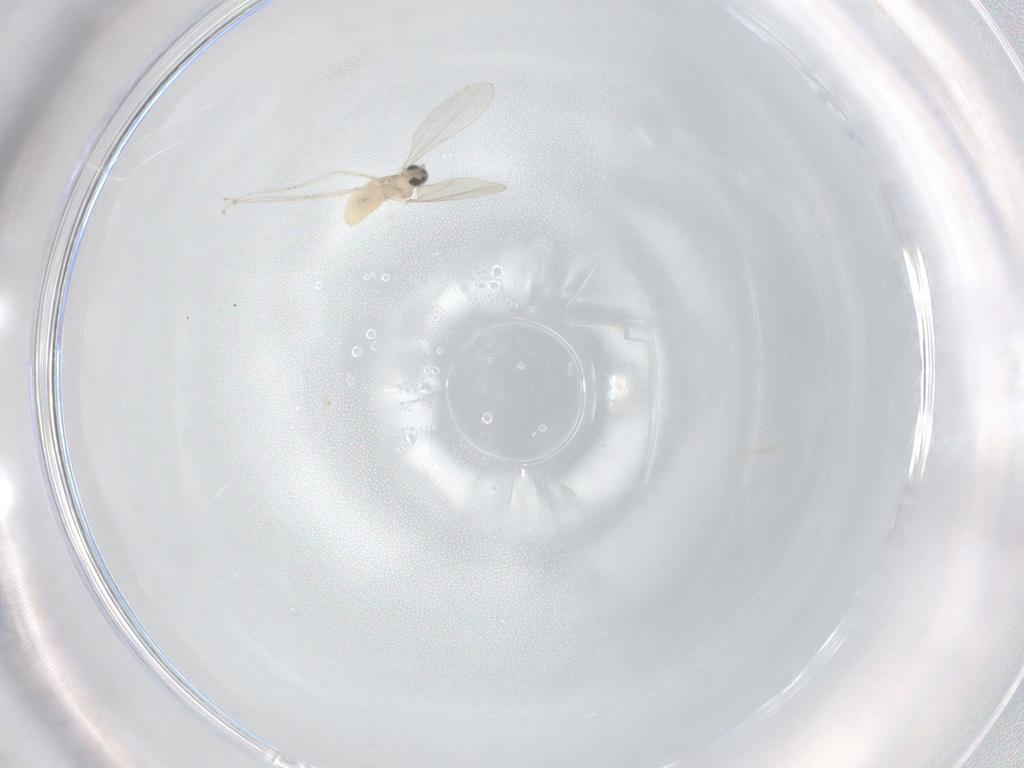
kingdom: Animalia
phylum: Arthropoda
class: Insecta
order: Diptera
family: Cecidomyiidae
